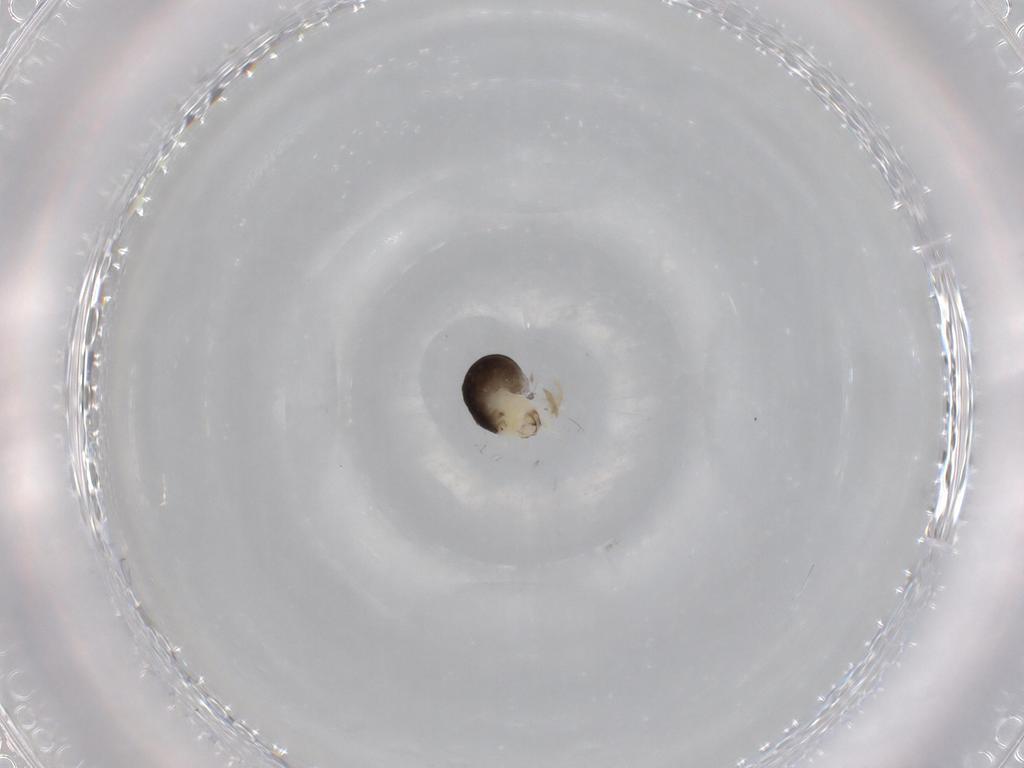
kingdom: Animalia
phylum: Arthropoda
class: Insecta
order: Hymenoptera
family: Dryinidae
